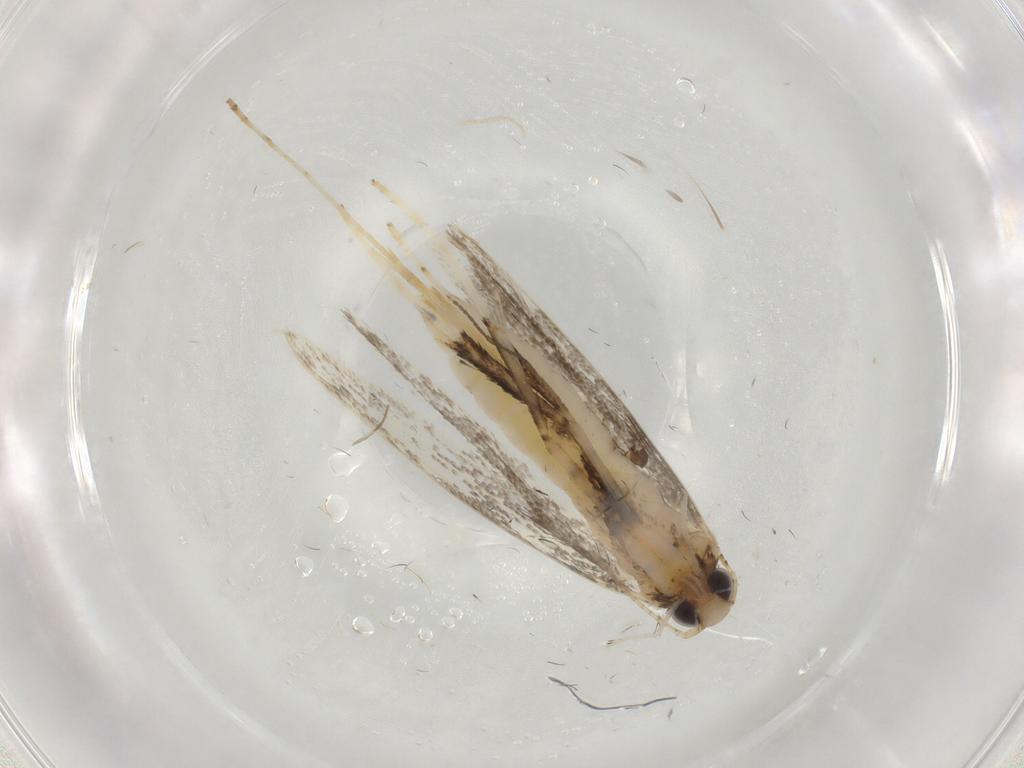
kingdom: Animalia
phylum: Arthropoda
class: Insecta
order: Lepidoptera
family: Gracillariidae
